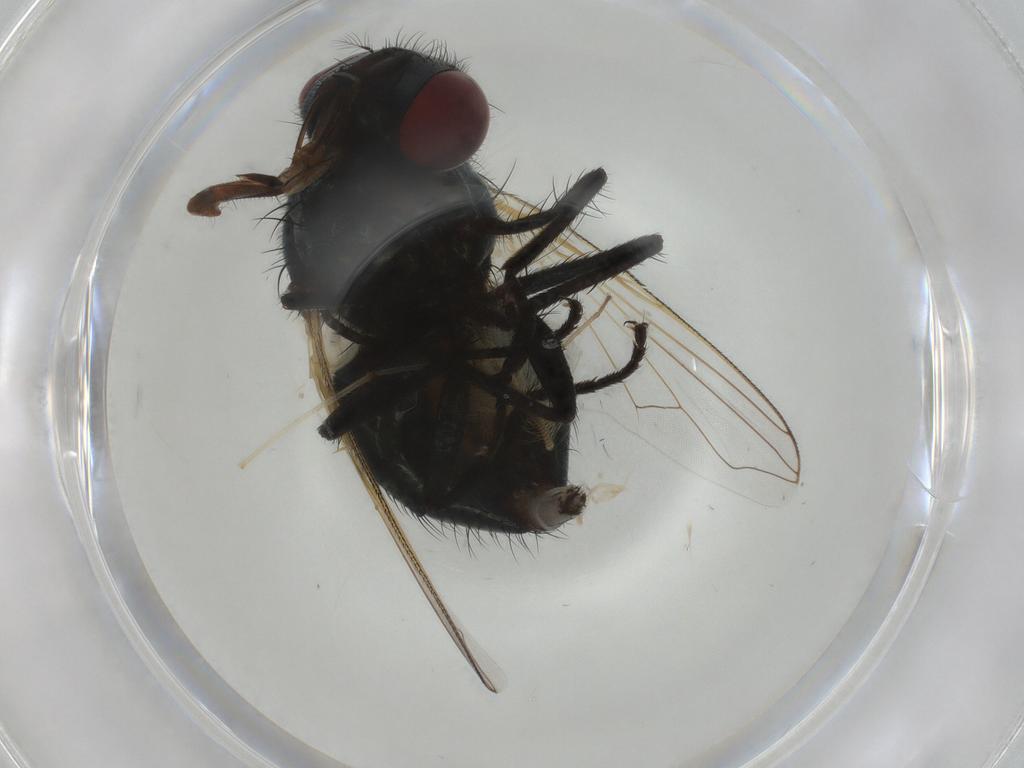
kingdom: Animalia
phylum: Arthropoda
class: Insecta
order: Diptera
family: Muscidae
